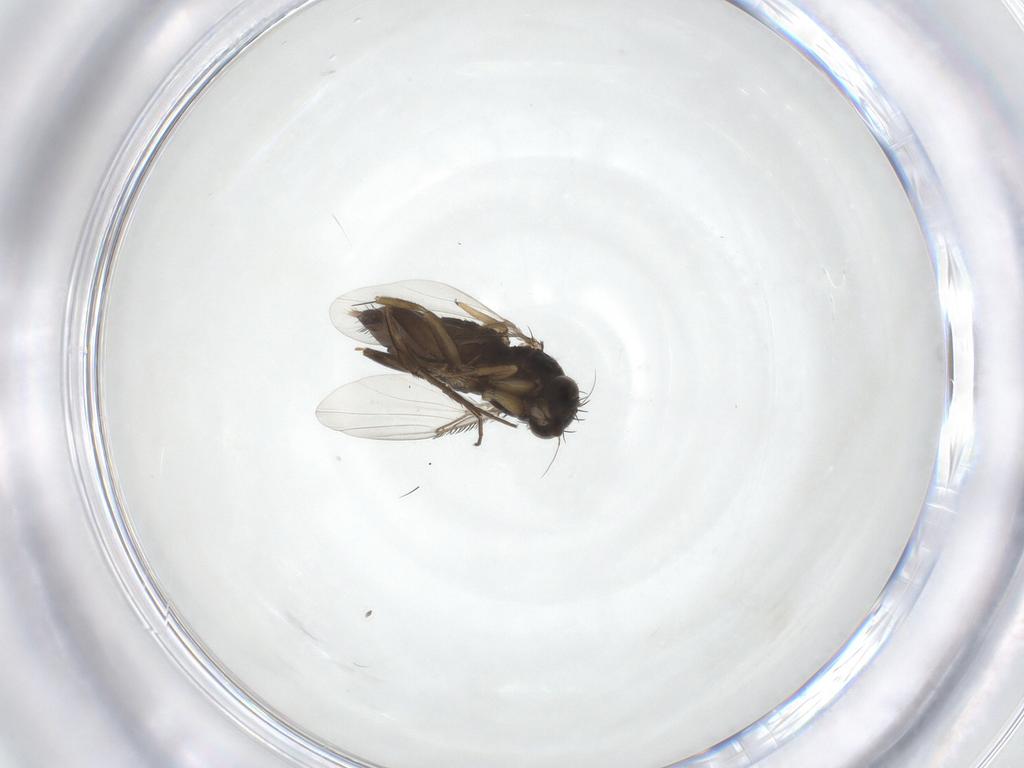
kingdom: Animalia
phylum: Arthropoda
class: Insecta
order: Diptera
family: Phoridae
